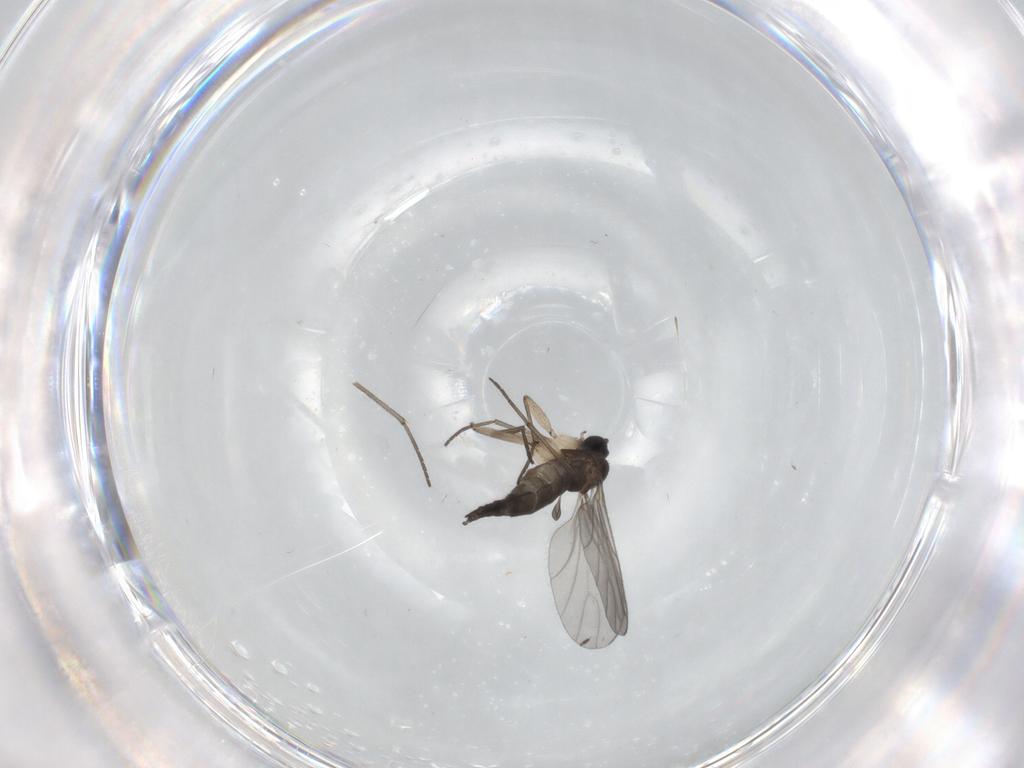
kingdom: Animalia
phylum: Arthropoda
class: Insecta
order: Diptera
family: Sciaridae
